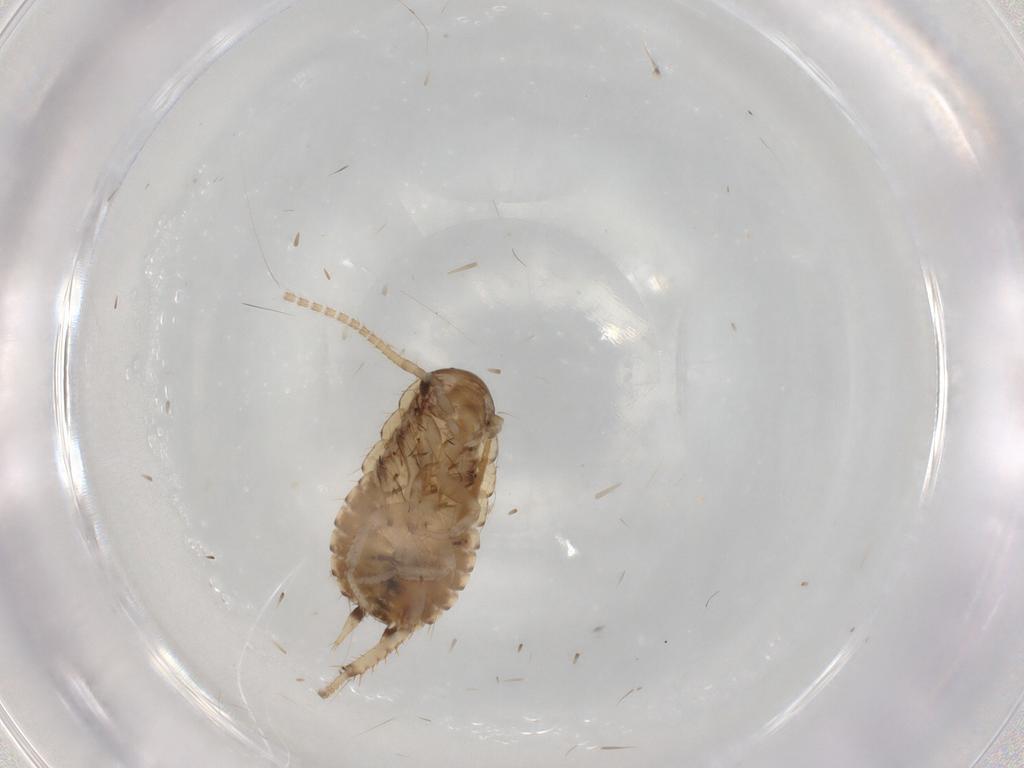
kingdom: Animalia
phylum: Arthropoda
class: Insecta
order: Blattodea
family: Blaberidae
